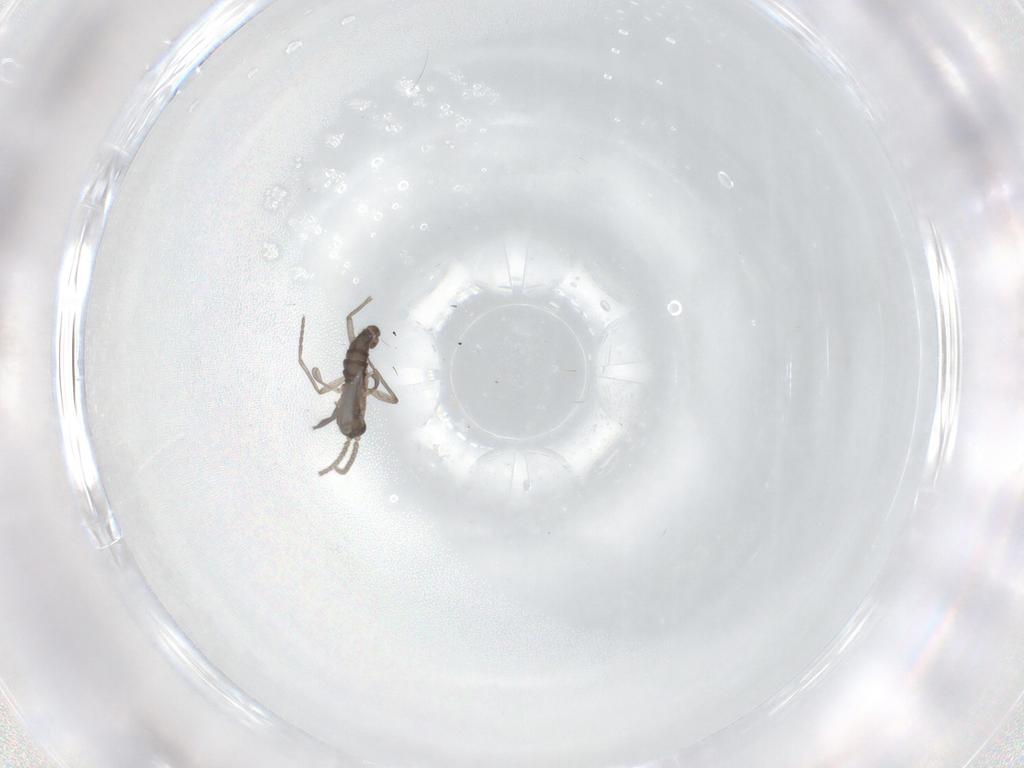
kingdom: Animalia
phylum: Arthropoda
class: Insecta
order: Diptera
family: Sciaridae
